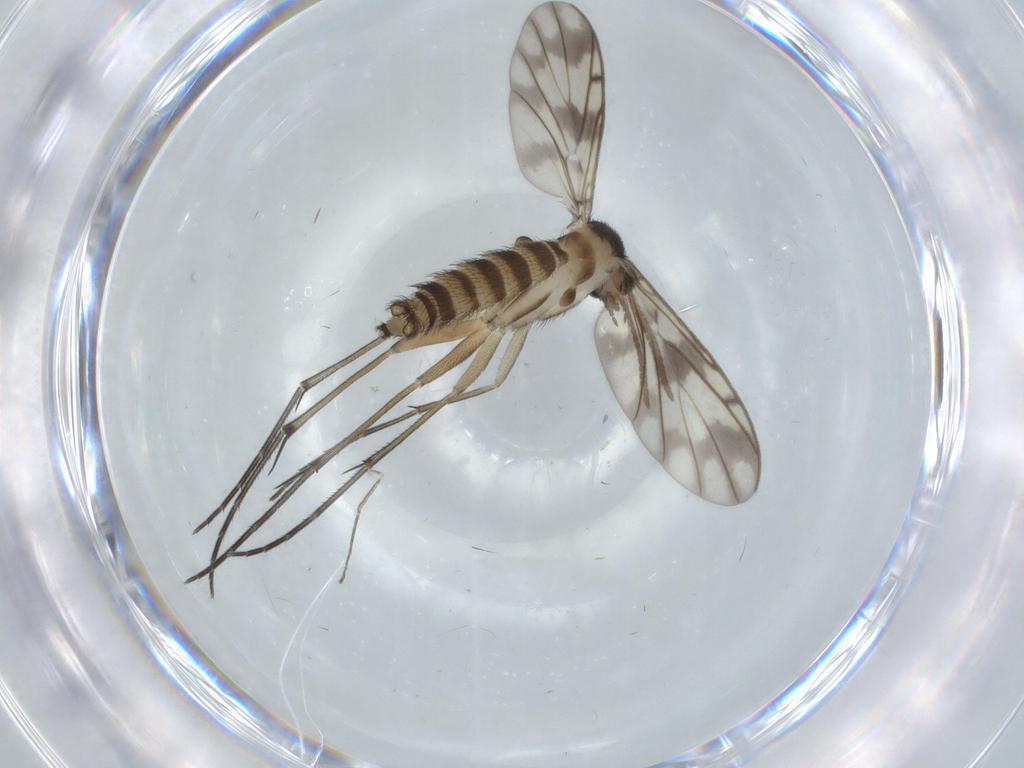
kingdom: Animalia
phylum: Arthropoda
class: Insecta
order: Diptera
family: Chironomidae
